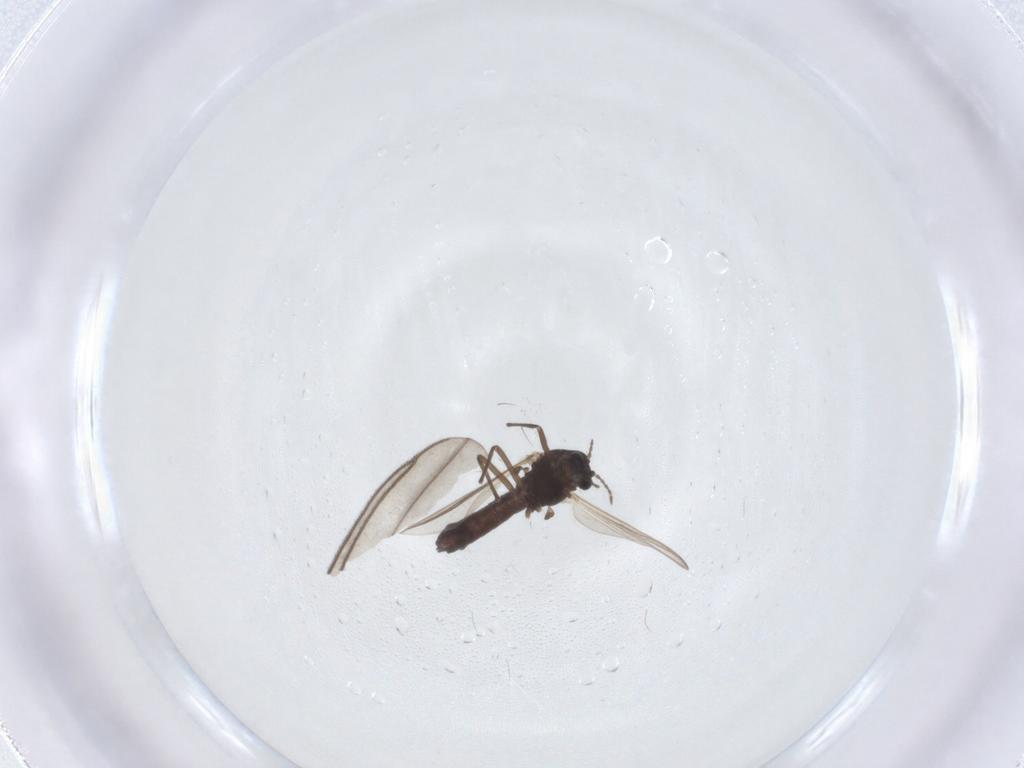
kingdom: Animalia
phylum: Arthropoda
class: Insecta
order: Diptera
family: Sciaridae
